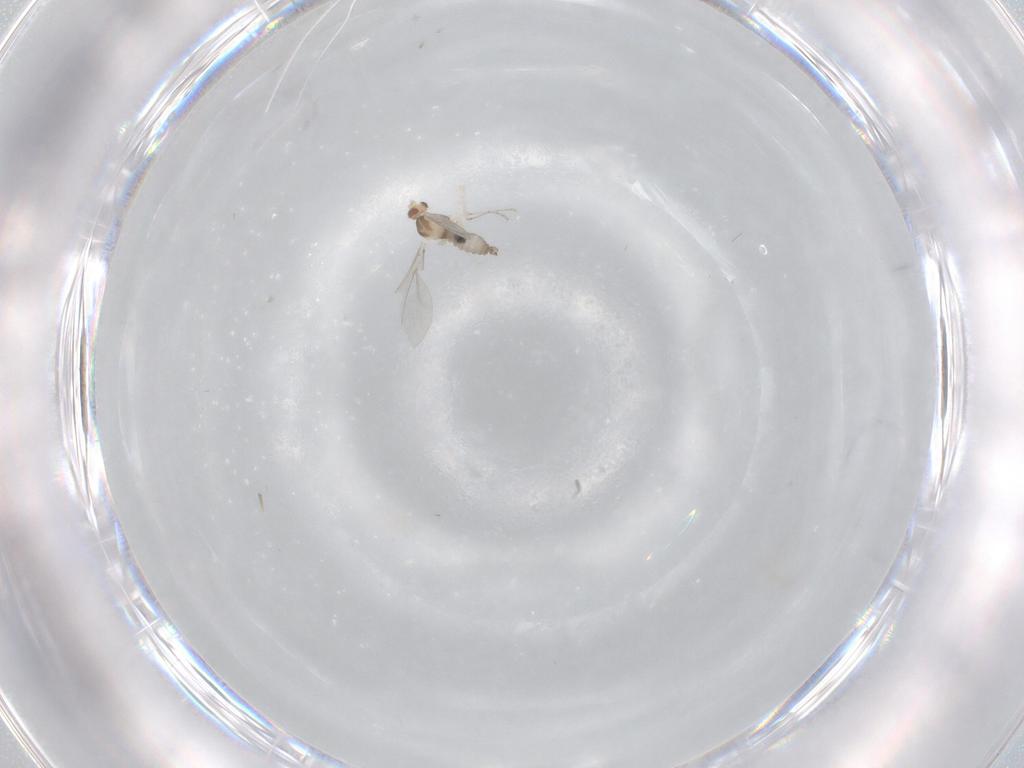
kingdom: Animalia
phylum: Arthropoda
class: Insecta
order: Diptera
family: Cecidomyiidae
